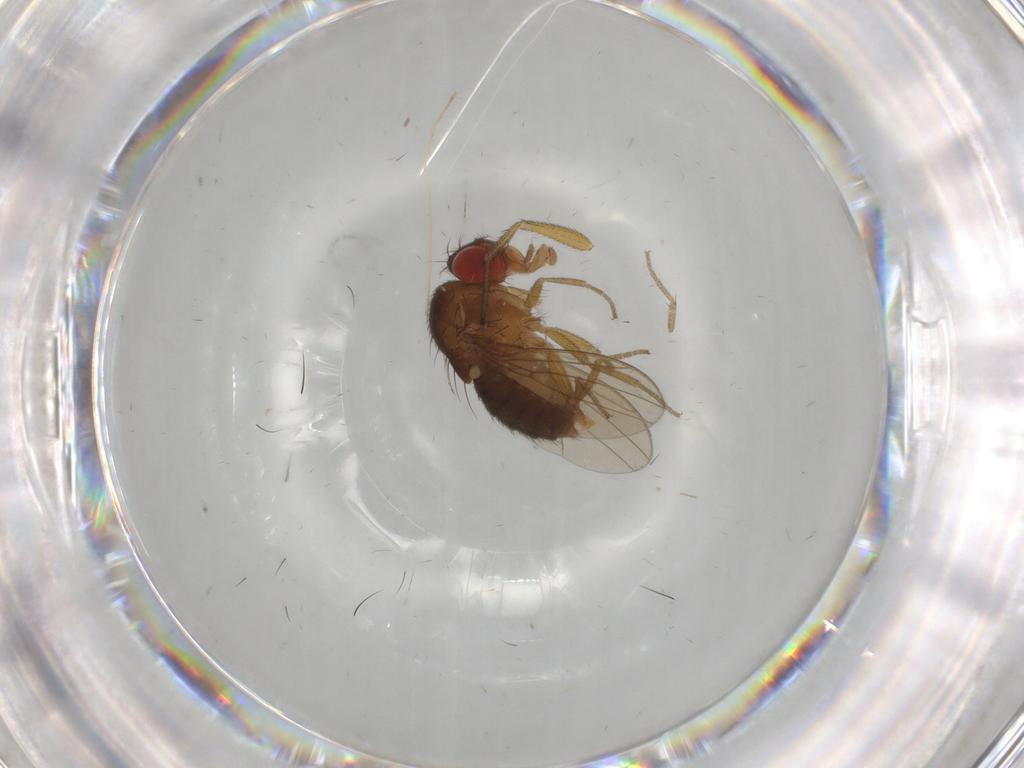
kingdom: Animalia
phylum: Arthropoda
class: Insecta
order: Diptera
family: Drosophilidae
